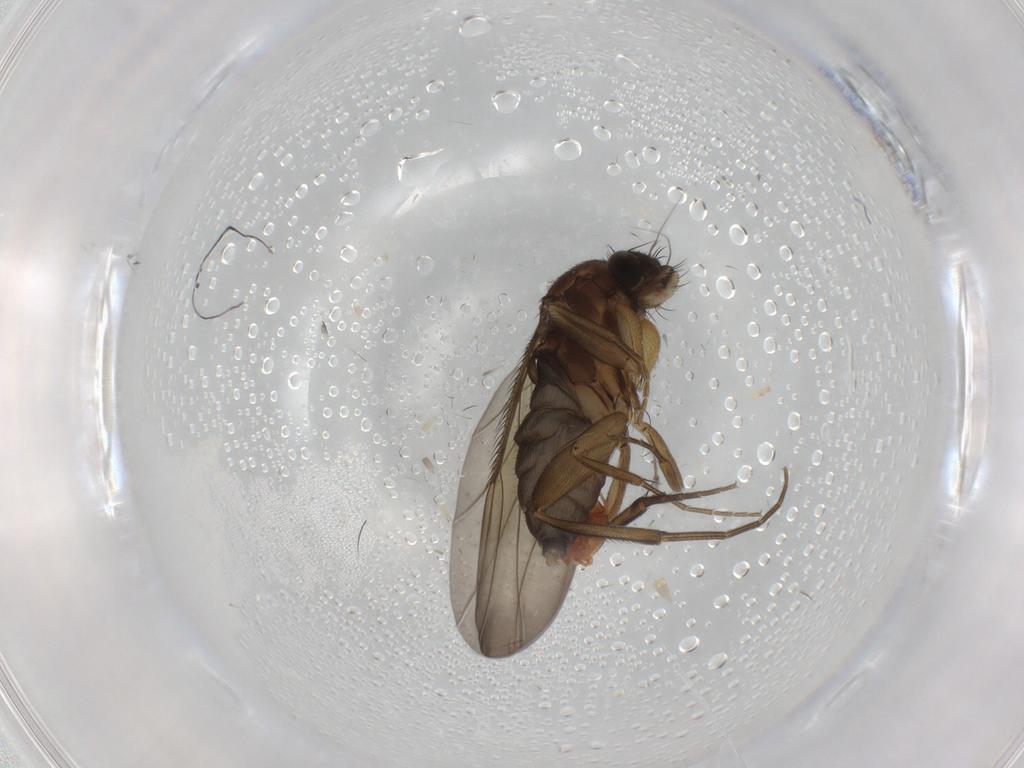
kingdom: Animalia
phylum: Arthropoda
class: Insecta
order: Diptera
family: Phoridae
